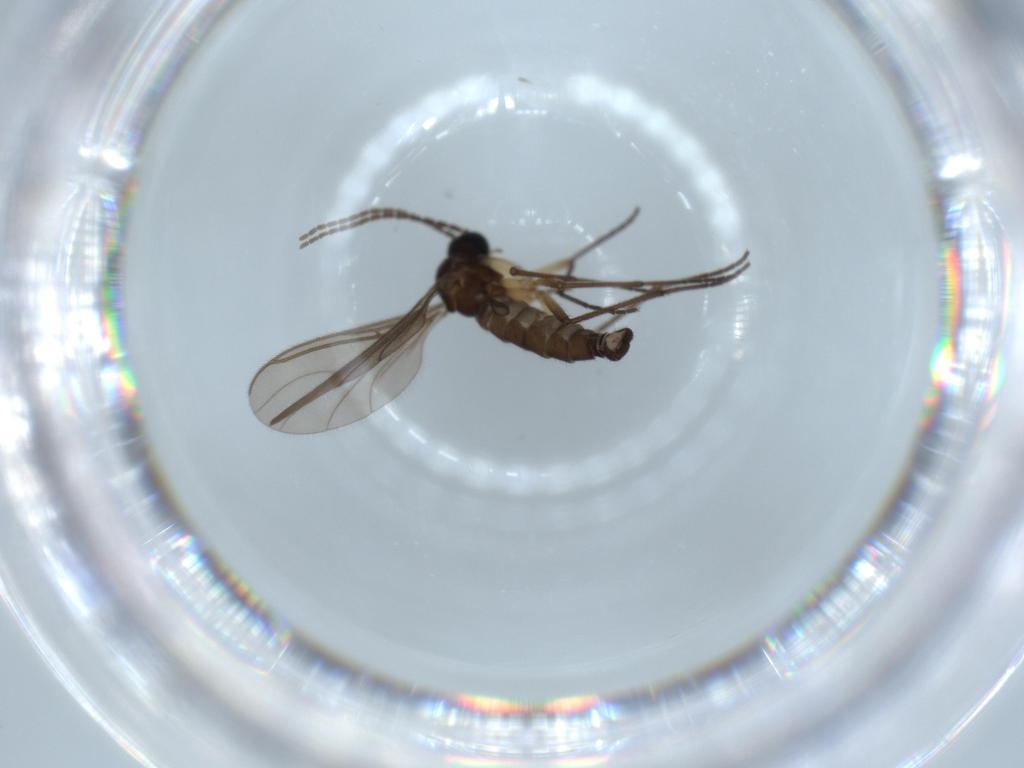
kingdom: Animalia
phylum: Arthropoda
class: Insecta
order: Diptera
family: Sciaridae
